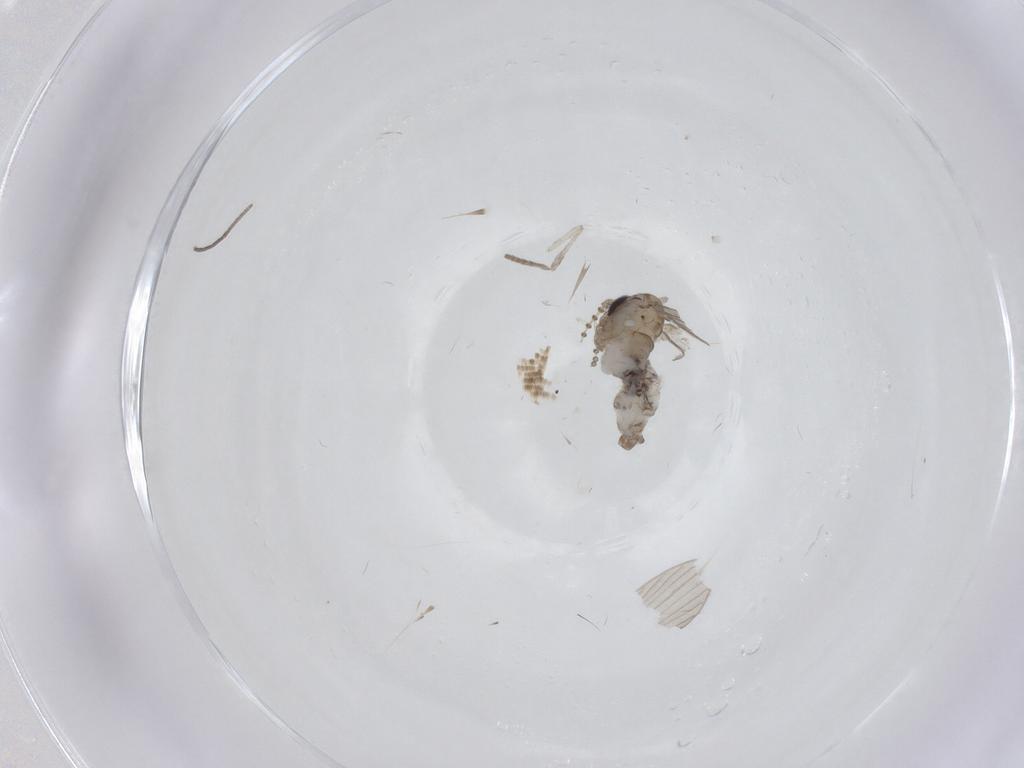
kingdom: Animalia
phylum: Arthropoda
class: Insecta
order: Diptera
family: Psychodidae
